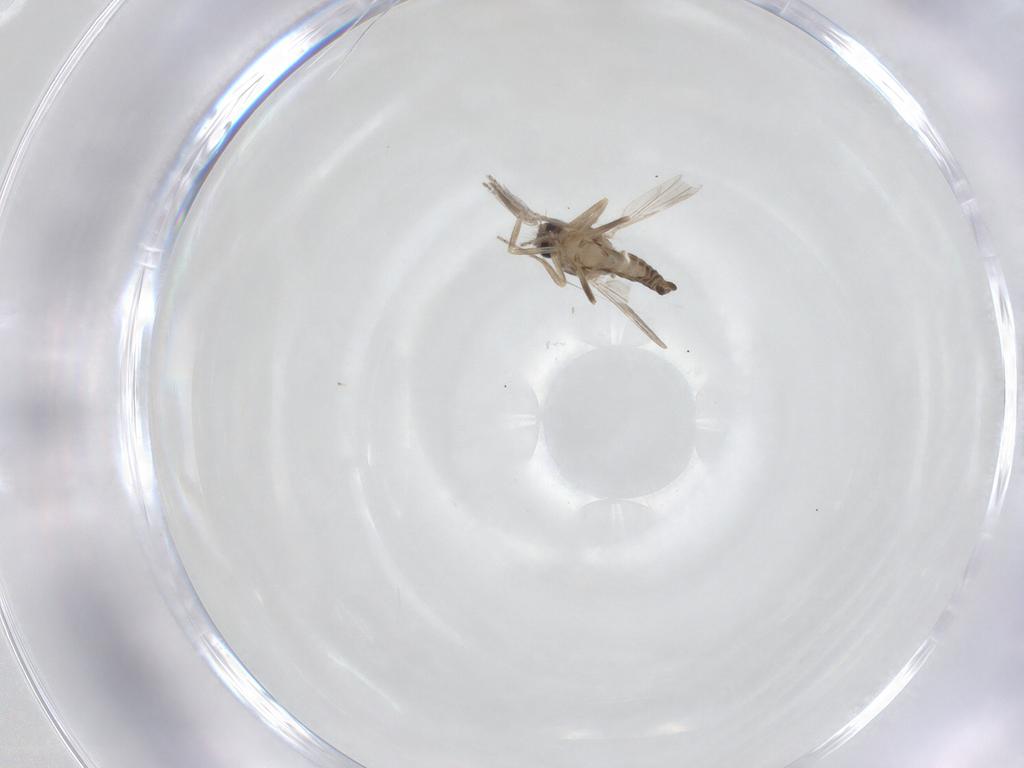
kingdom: Animalia
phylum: Arthropoda
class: Insecta
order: Diptera
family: Ceratopogonidae
